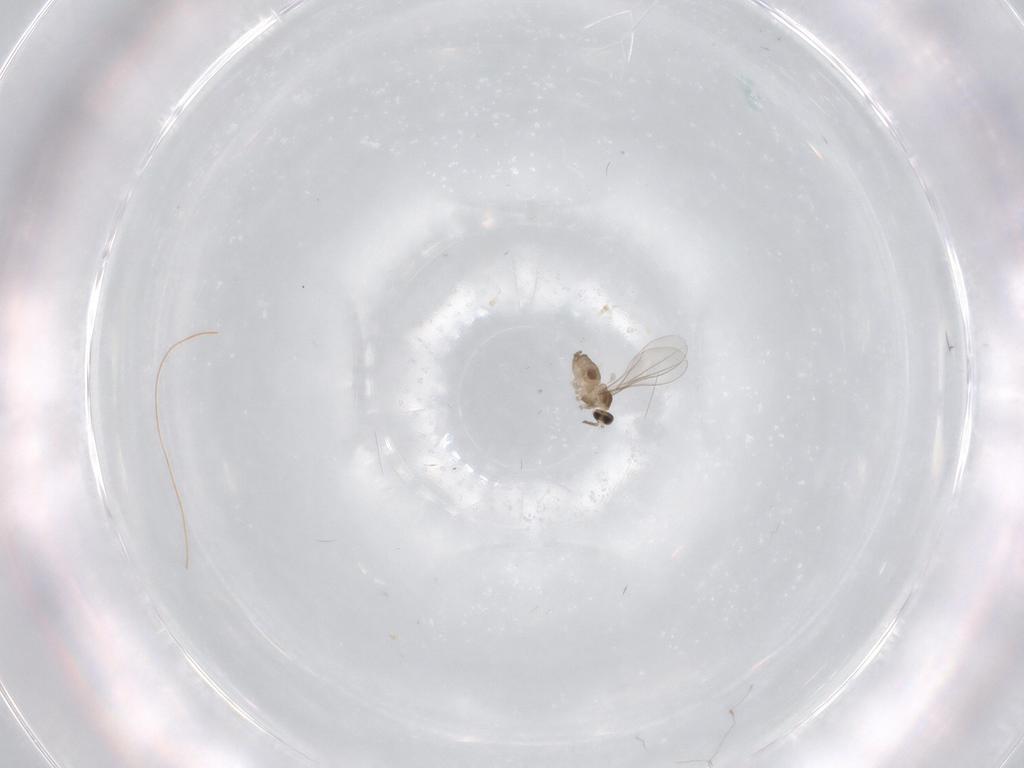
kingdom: Animalia
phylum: Arthropoda
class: Insecta
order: Diptera
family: Cecidomyiidae
